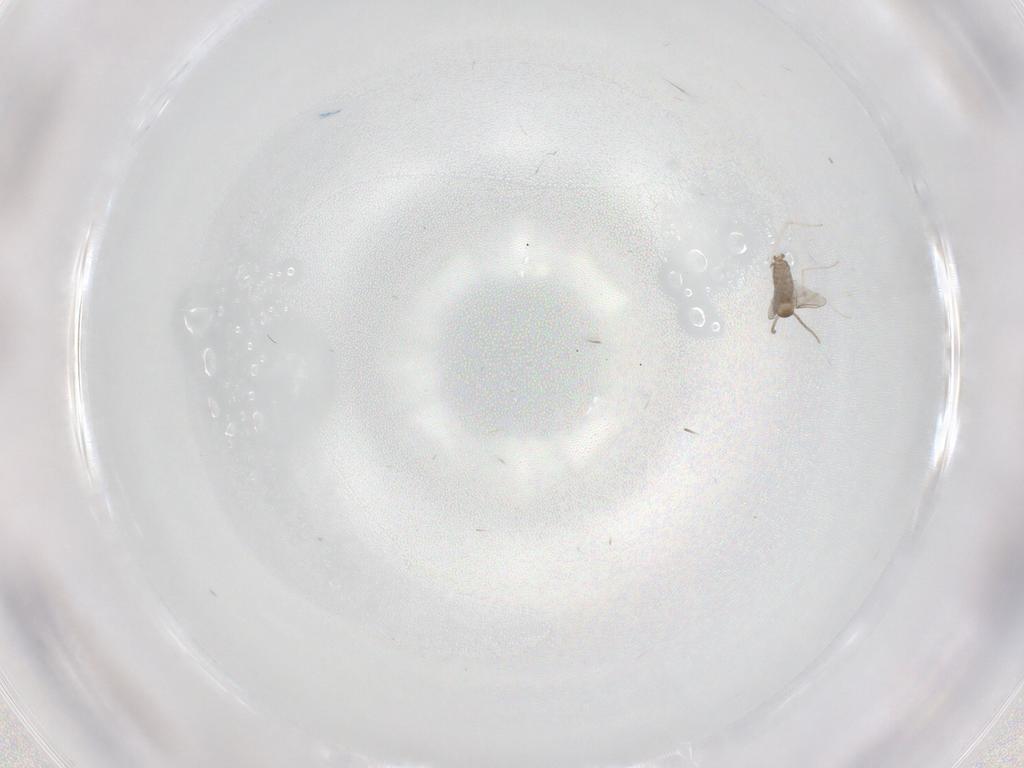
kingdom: Animalia
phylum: Arthropoda
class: Insecta
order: Diptera
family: Cecidomyiidae
